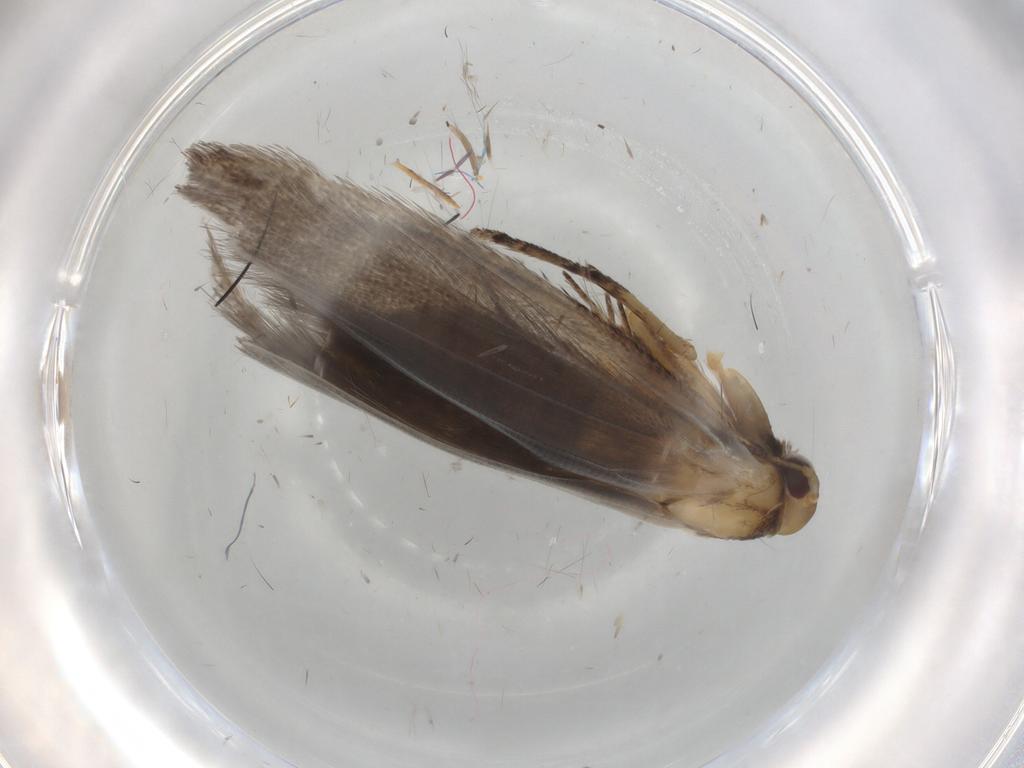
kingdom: Animalia
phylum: Arthropoda
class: Insecta
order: Lepidoptera
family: Epermeniidae
